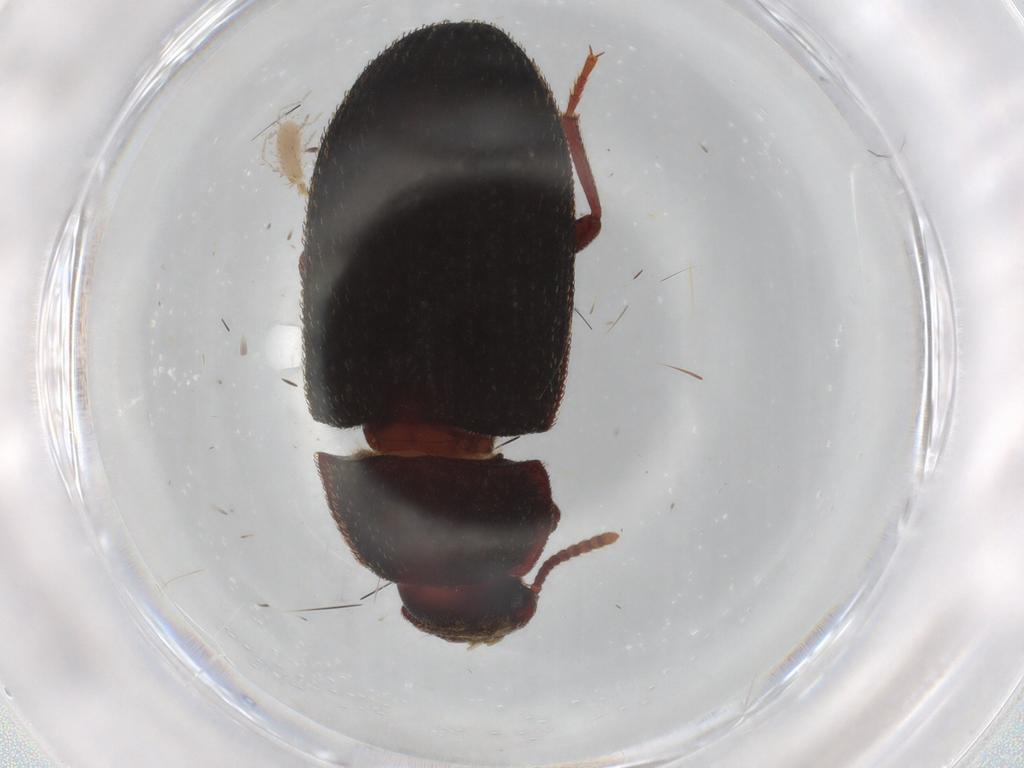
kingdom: Animalia
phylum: Arthropoda
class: Insecta
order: Coleoptera
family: Staphylinidae
